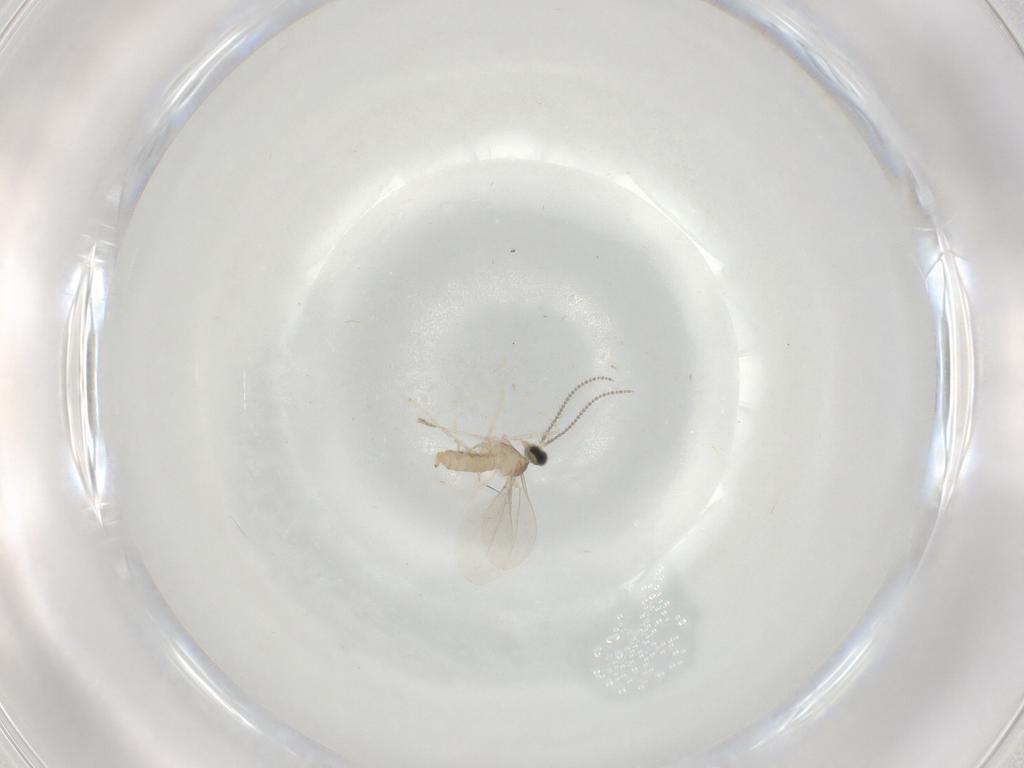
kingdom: Animalia
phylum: Arthropoda
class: Insecta
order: Diptera
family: Cecidomyiidae
